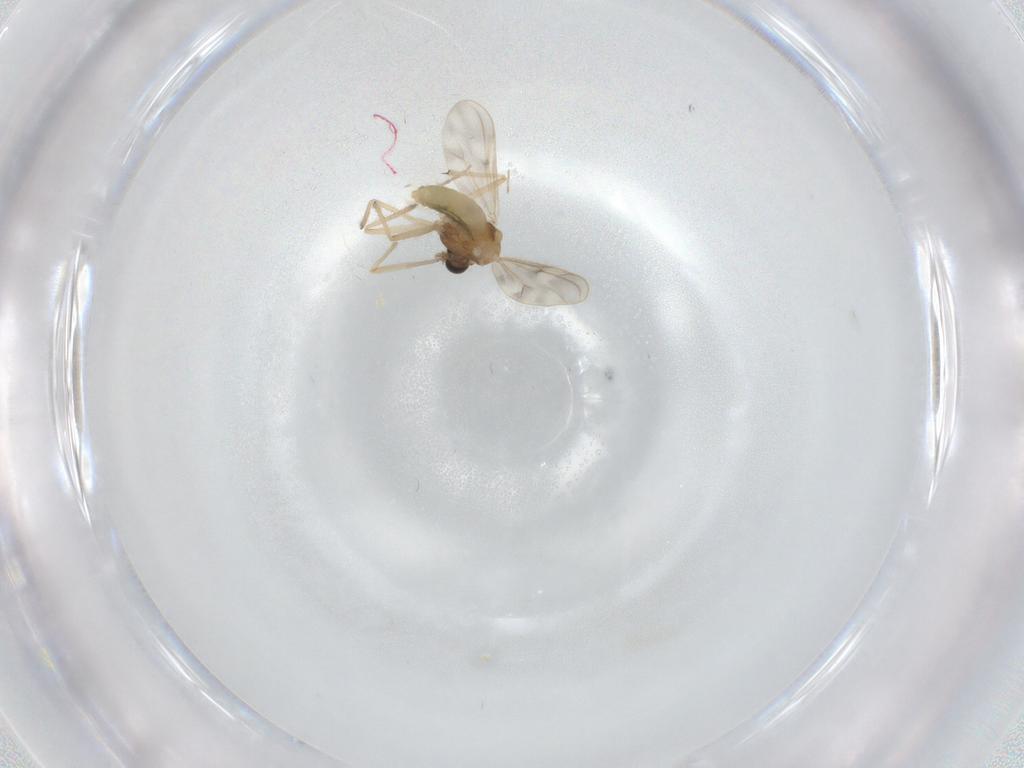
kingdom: Animalia
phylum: Arthropoda
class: Insecta
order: Diptera
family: Chironomidae
